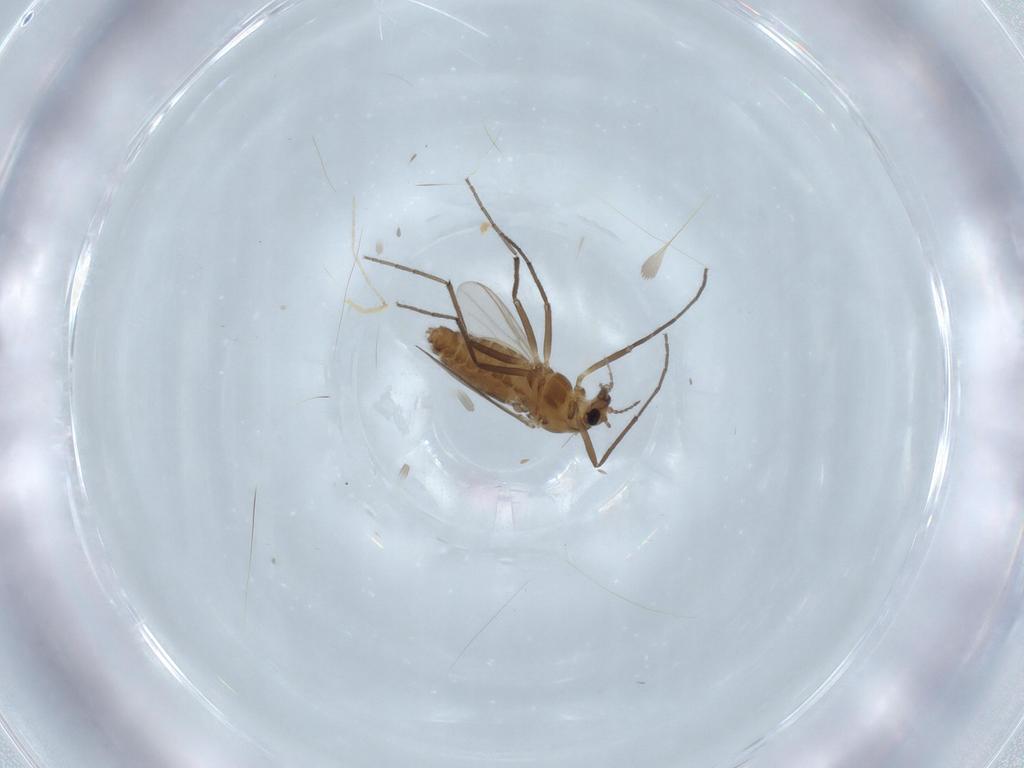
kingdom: Animalia
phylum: Arthropoda
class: Insecta
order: Diptera
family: Chironomidae
